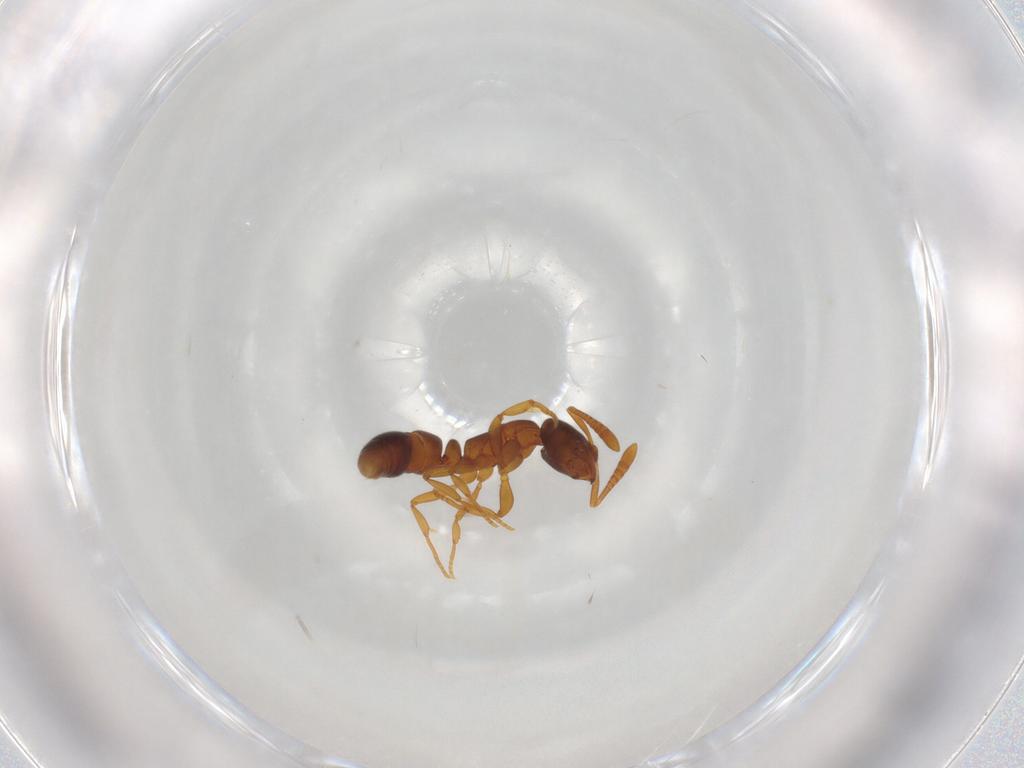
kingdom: Animalia
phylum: Arthropoda
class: Insecta
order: Hymenoptera
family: Formicidae
